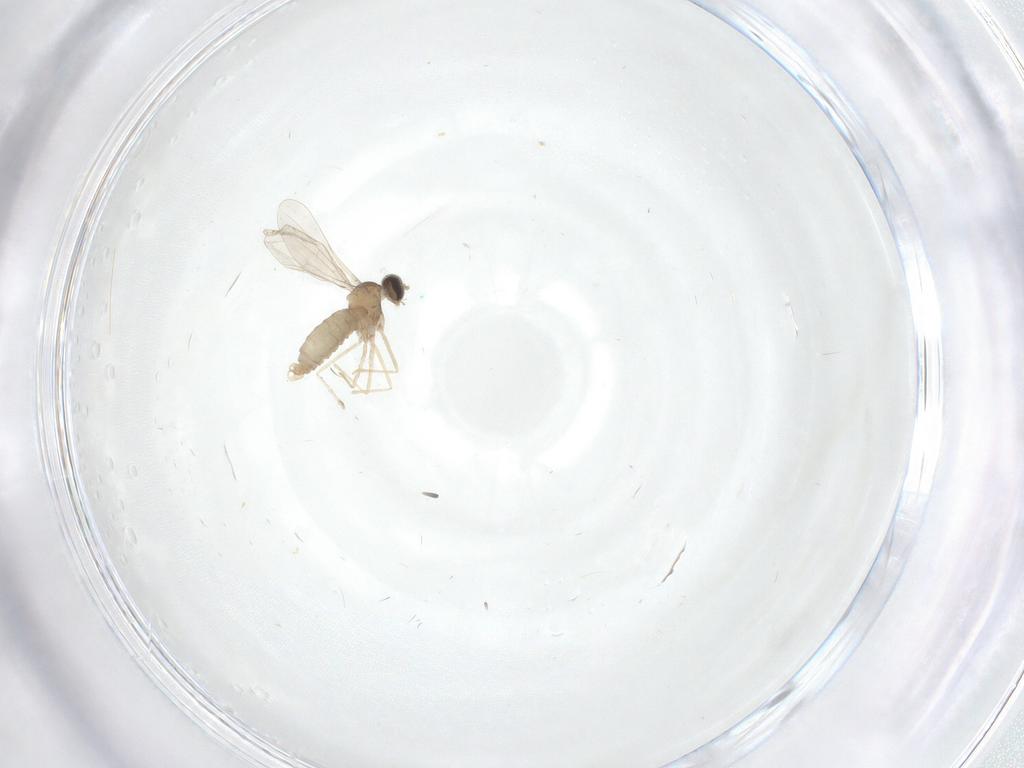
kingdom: Animalia
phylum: Arthropoda
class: Insecta
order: Diptera
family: Cecidomyiidae
